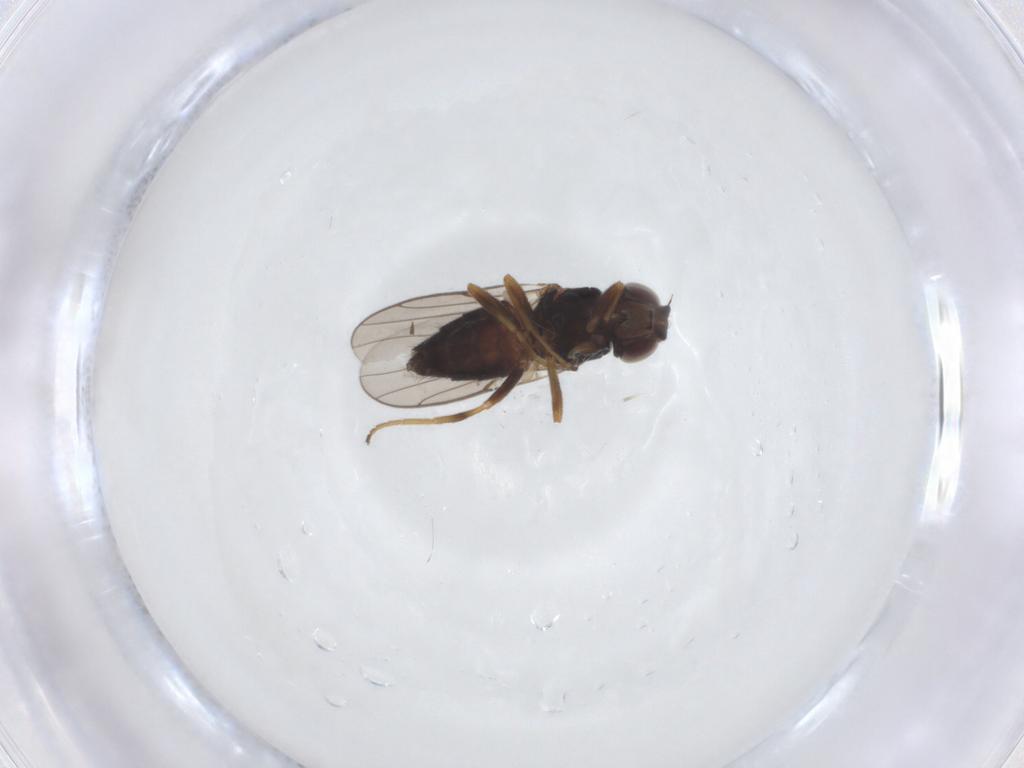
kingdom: Animalia
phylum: Arthropoda
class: Insecta
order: Diptera
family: Chloropidae
